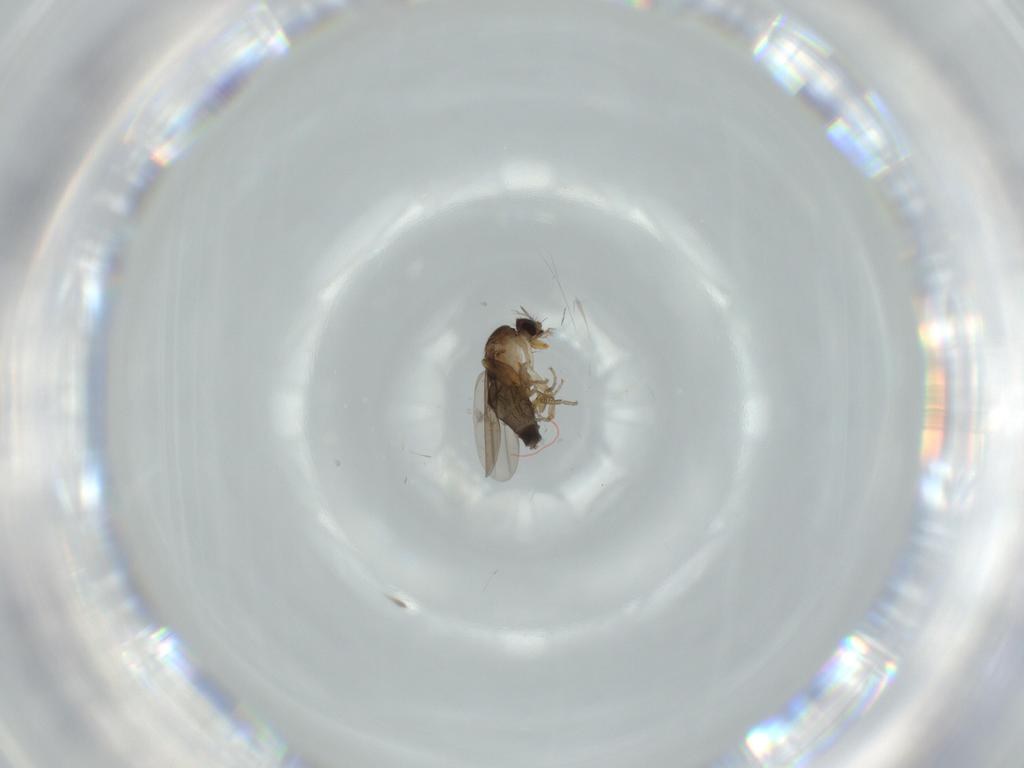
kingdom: Animalia
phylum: Arthropoda
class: Insecta
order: Diptera
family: Phoridae
